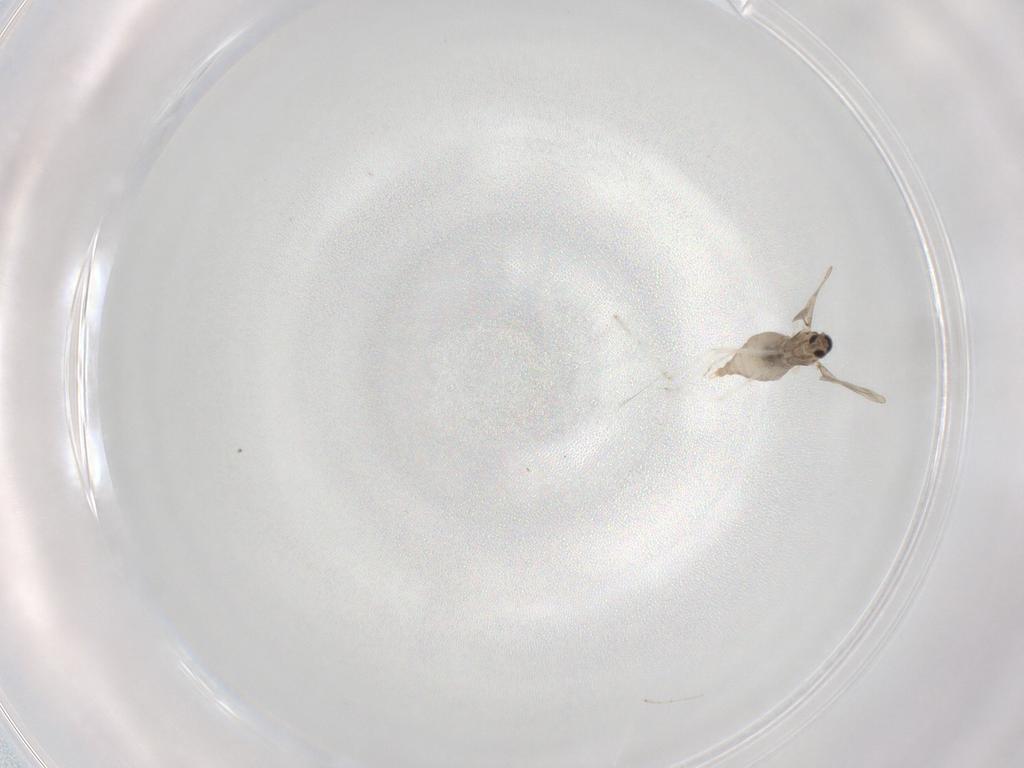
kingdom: Animalia
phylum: Arthropoda
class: Insecta
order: Diptera
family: Cecidomyiidae
